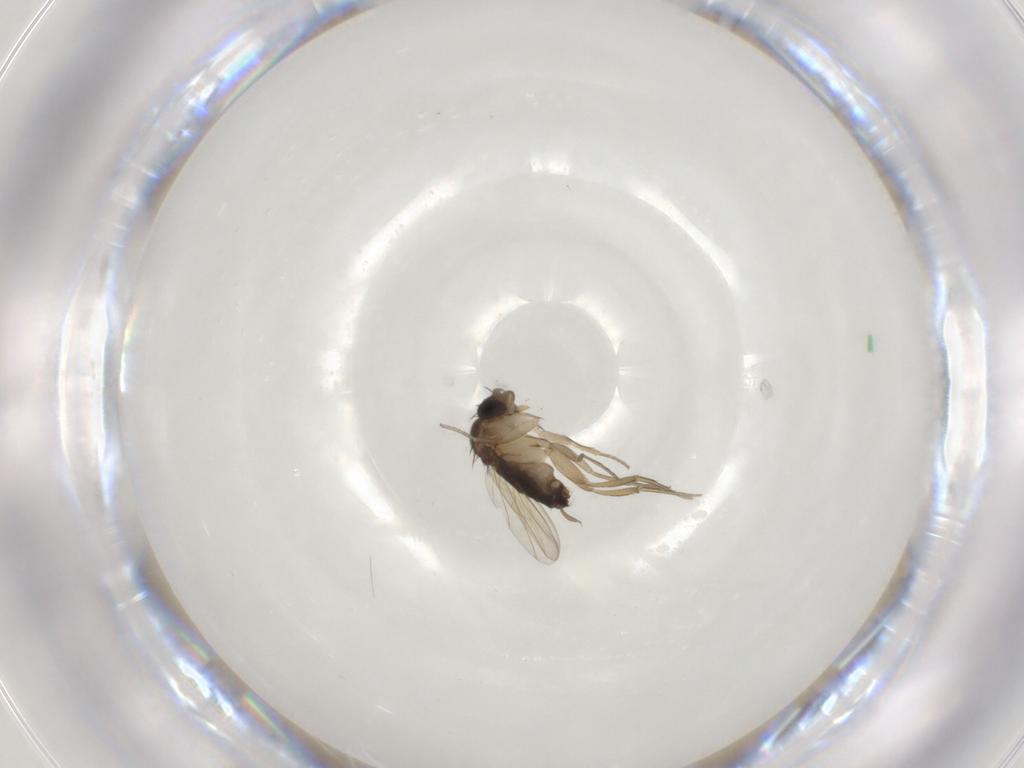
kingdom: Animalia
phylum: Arthropoda
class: Insecta
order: Diptera
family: Phoridae
